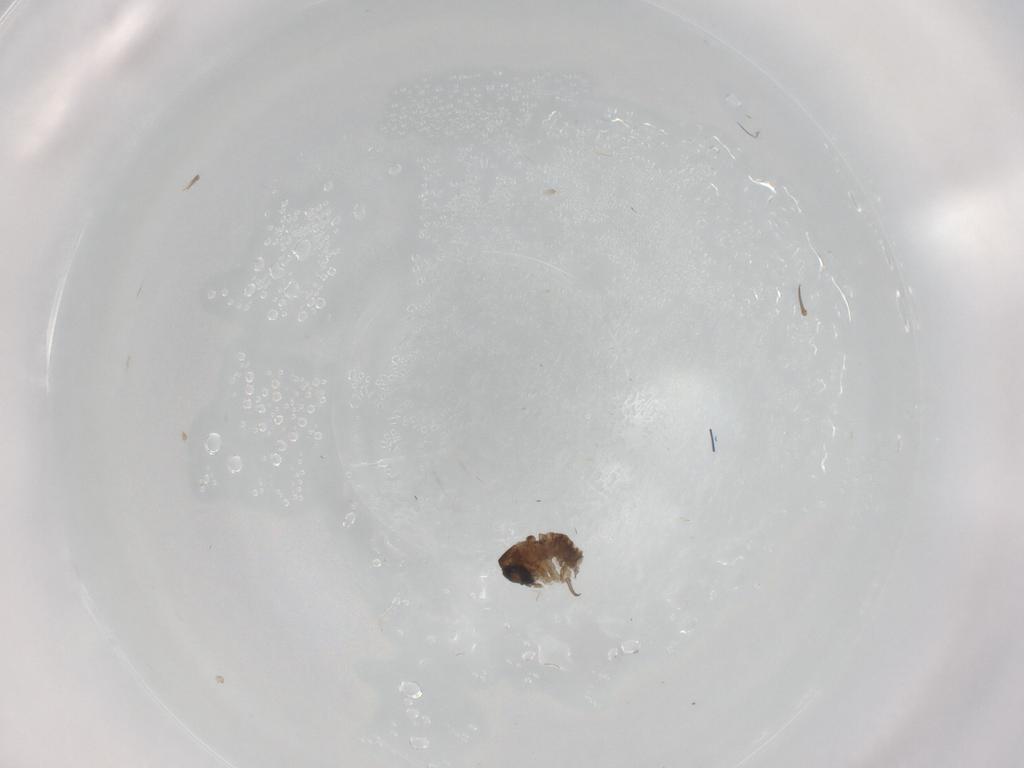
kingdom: Animalia
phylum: Arthropoda
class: Insecta
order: Diptera
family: Psychodidae
